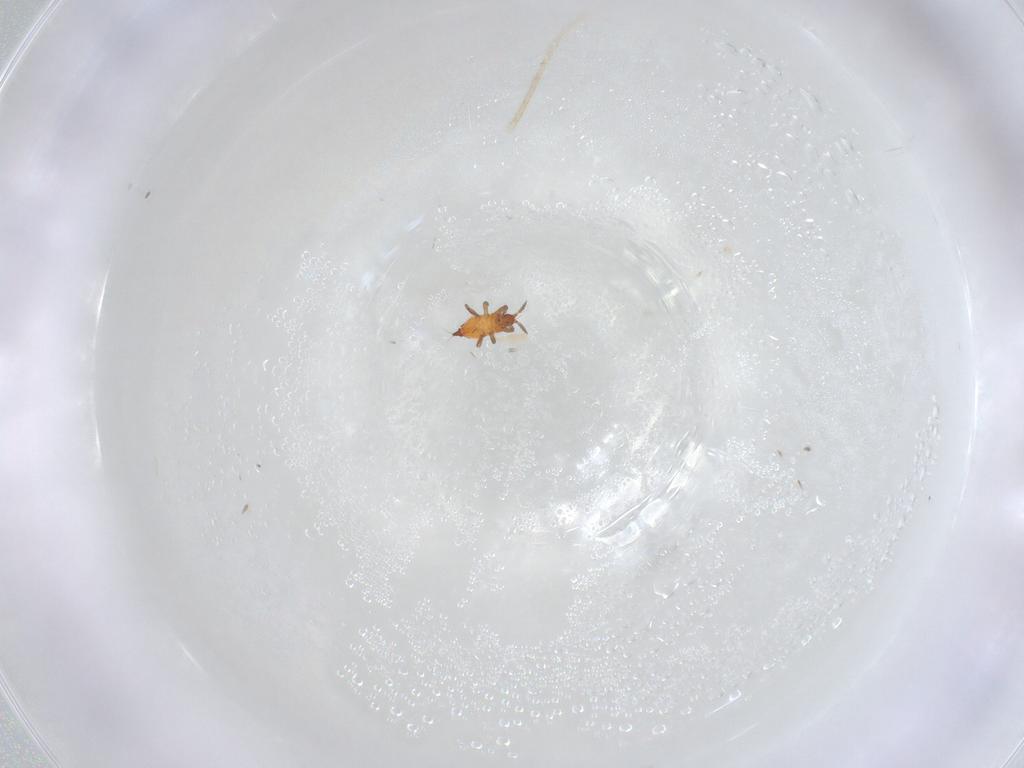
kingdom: Animalia
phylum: Arthropoda
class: Insecta
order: Thysanoptera
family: Phlaeothripidae
